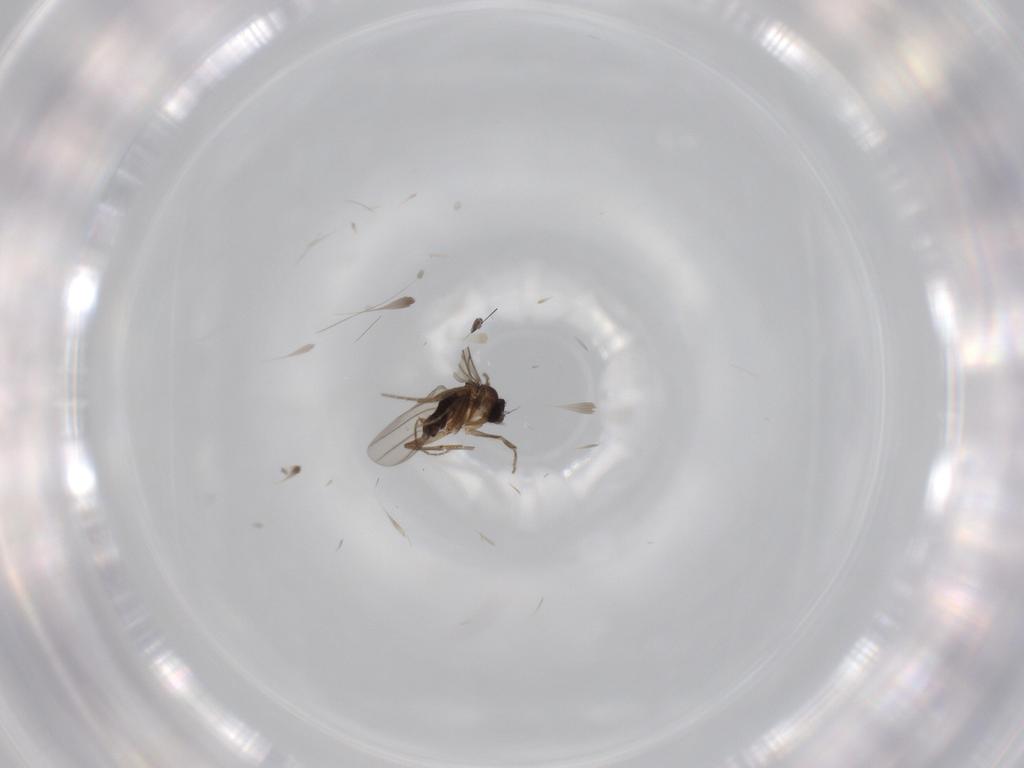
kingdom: Animalia
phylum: Arthropoda
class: Insecta
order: Diptera
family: Phoridae
